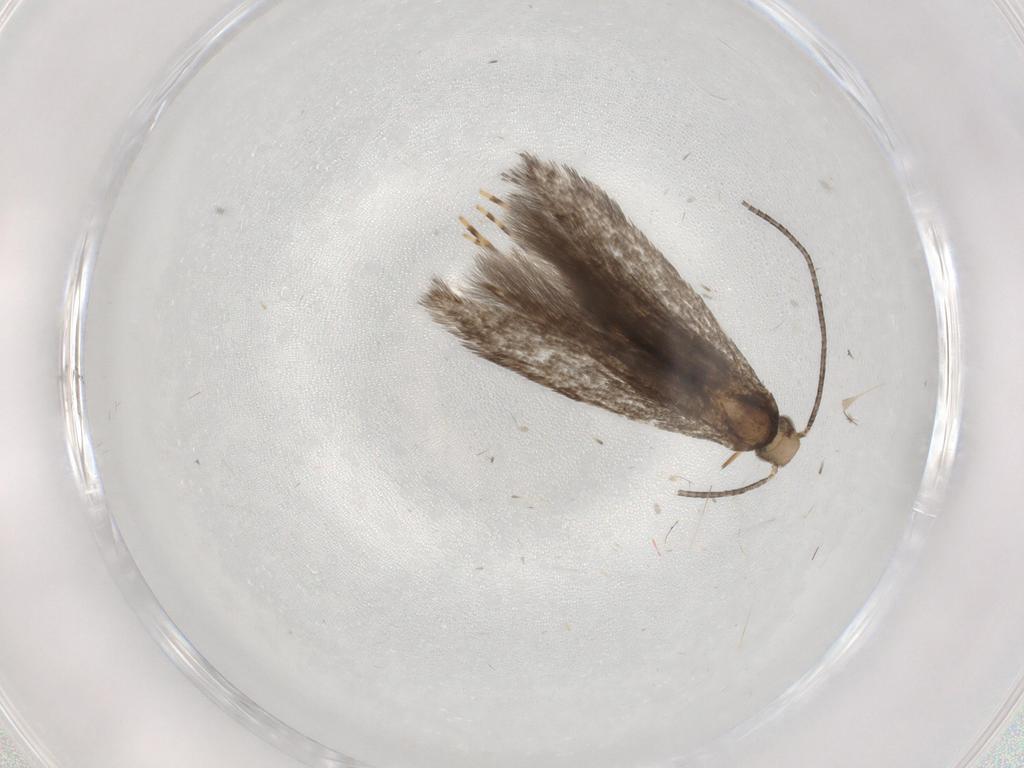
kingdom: Animalia
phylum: Arthropoda
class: Insecta
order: Lepidoptera
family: Gracillariidae
